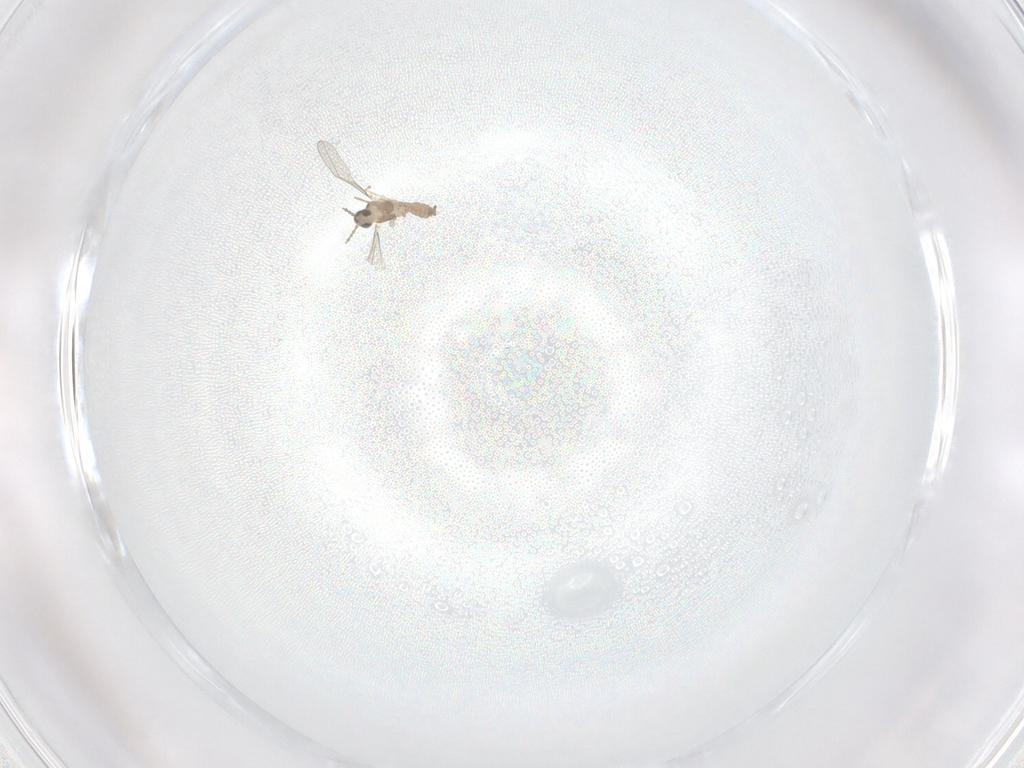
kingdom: Animalia
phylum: Arthropoda
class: Insecta
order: Diptera
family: Cecidomyiidae
